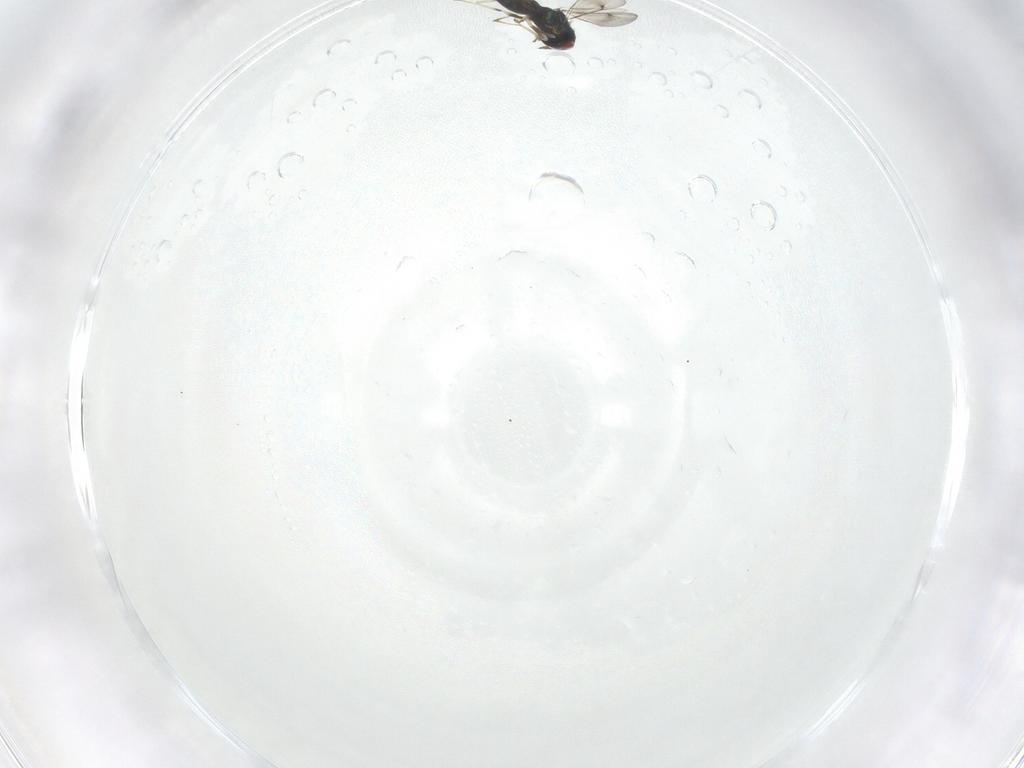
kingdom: Animalia
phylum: Arthropoda
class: Insecta
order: Hymenoptera
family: Eulophidae
